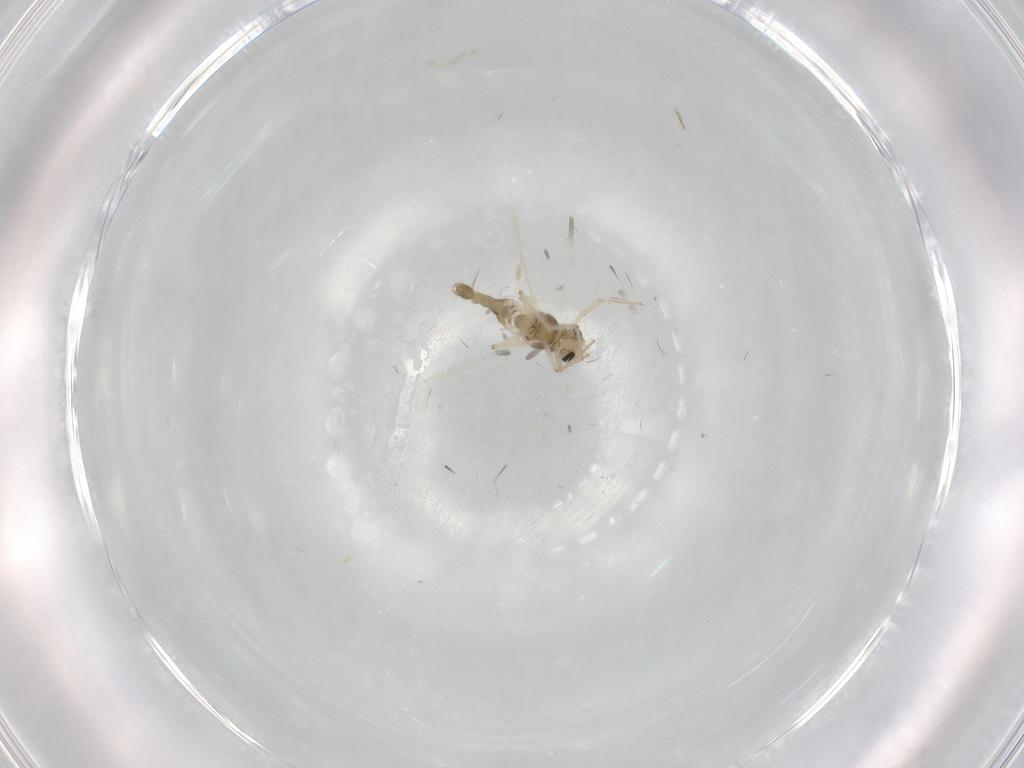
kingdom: Animalia
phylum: Arthropoda
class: Insecta
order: Diptera
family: Chironomidae
